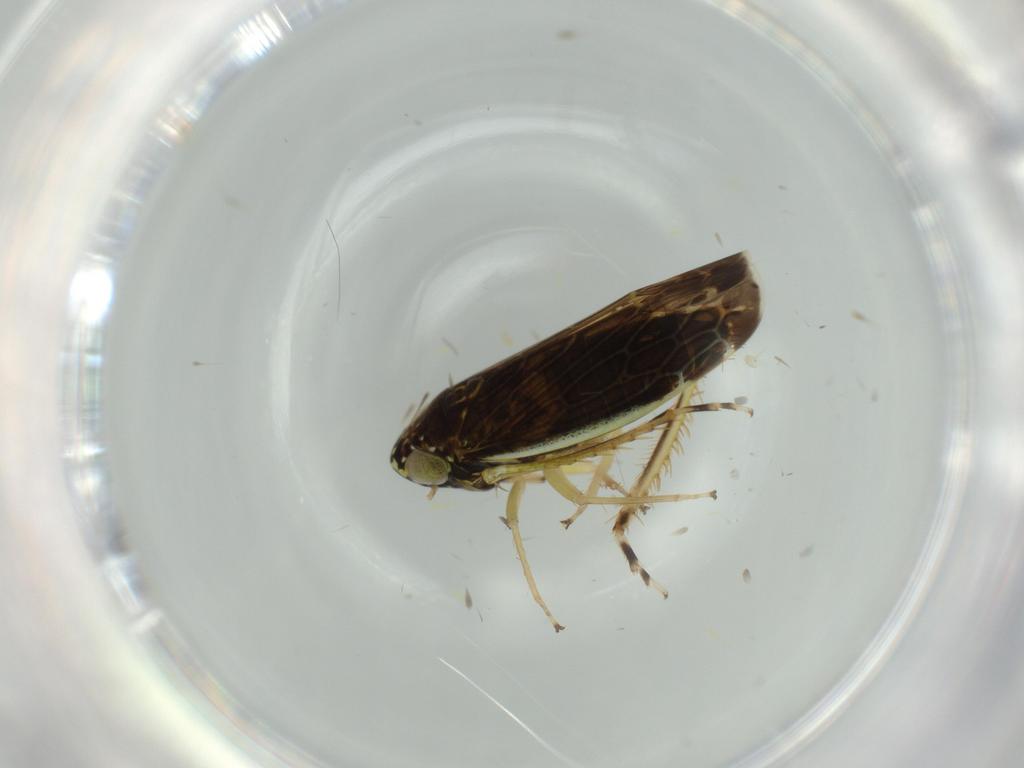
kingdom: Animalia
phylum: Arthropoda
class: Insecta
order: Hemiptera
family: Cicadellidae
